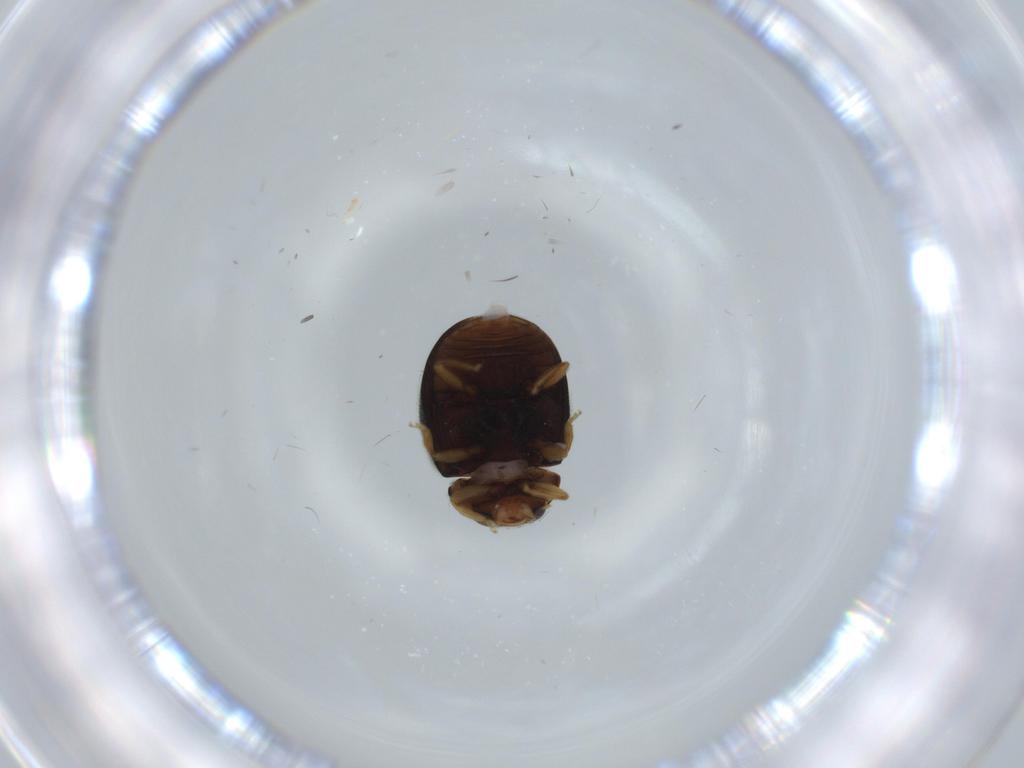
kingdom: Animalia
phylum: Arthropoda
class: Insecta
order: Coleoptera
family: Coccinellidae
